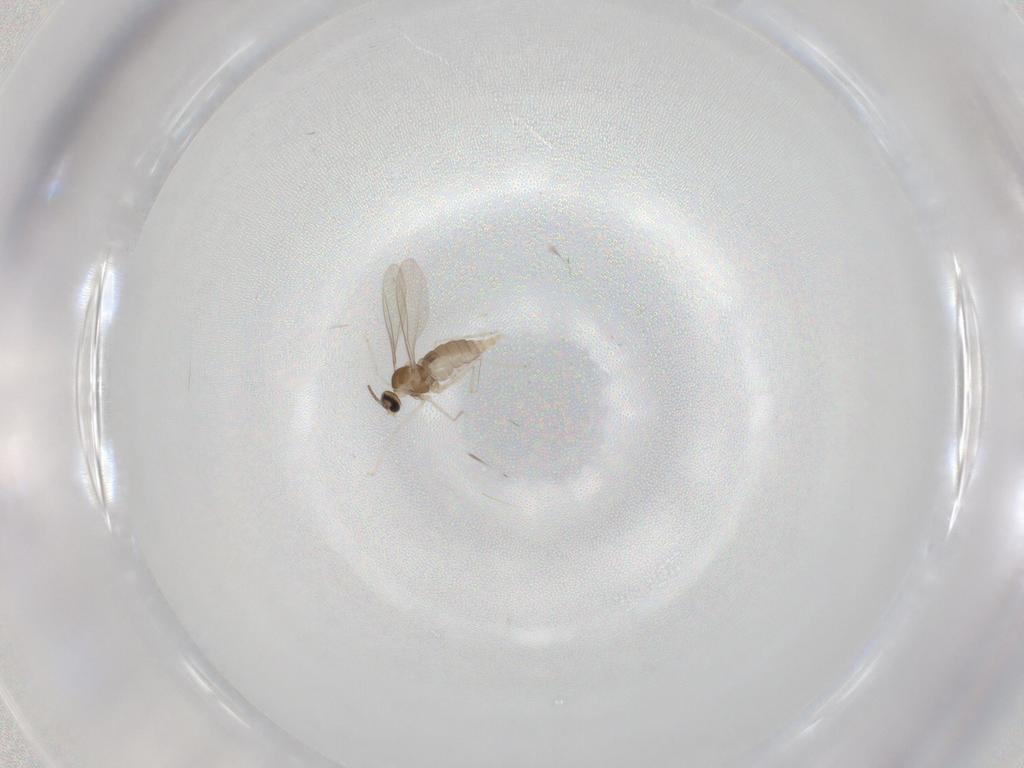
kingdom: Animalia
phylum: Arthropoda
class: Insecta
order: Diptera
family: Cecidomyiidae
